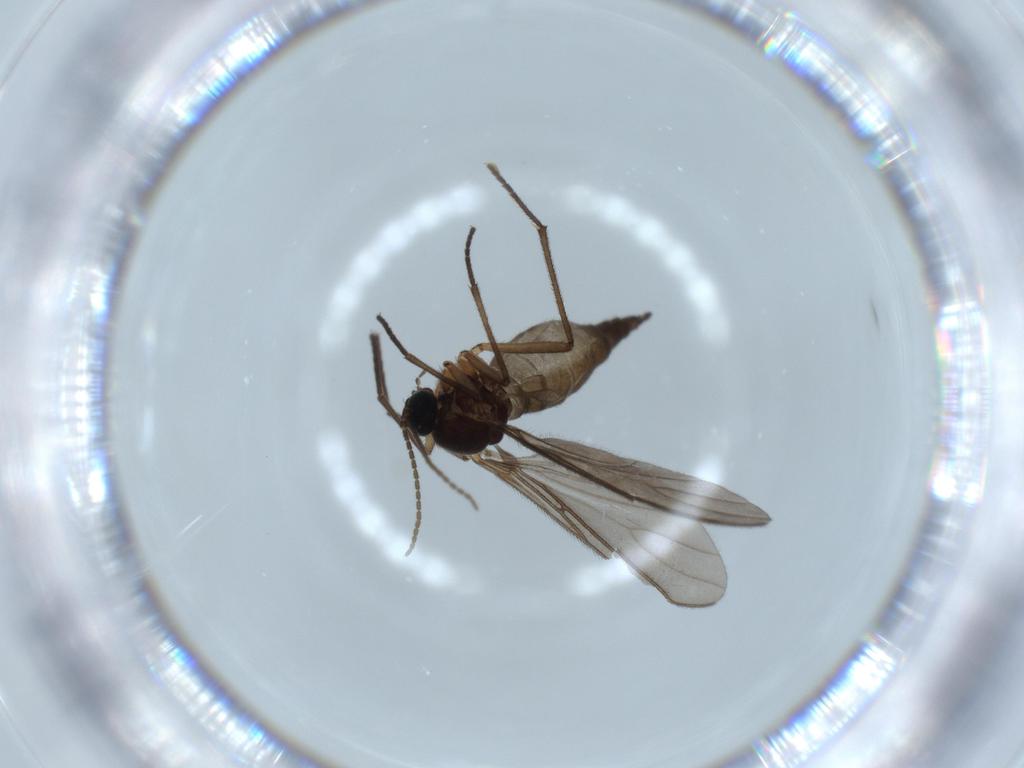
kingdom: Animalia
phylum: Arthropoda
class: Insecta
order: Diptera
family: Sciaridae
